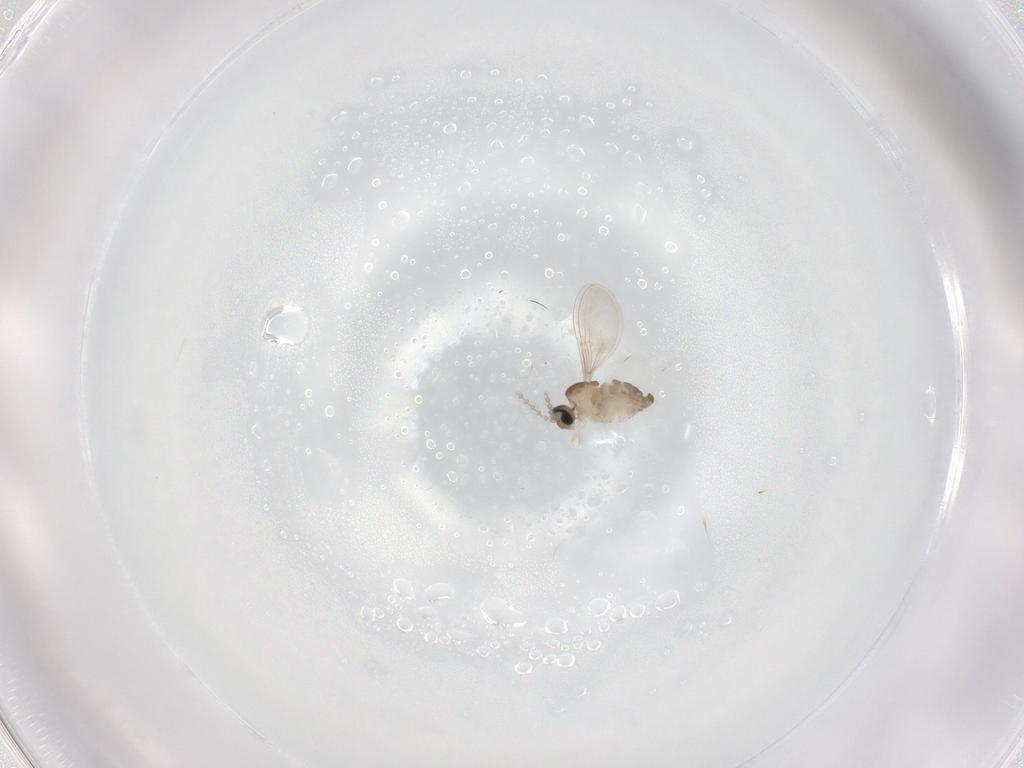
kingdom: Animalia
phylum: Arthropoda
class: Insecta
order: Diptera
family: Cecidomyiidae
